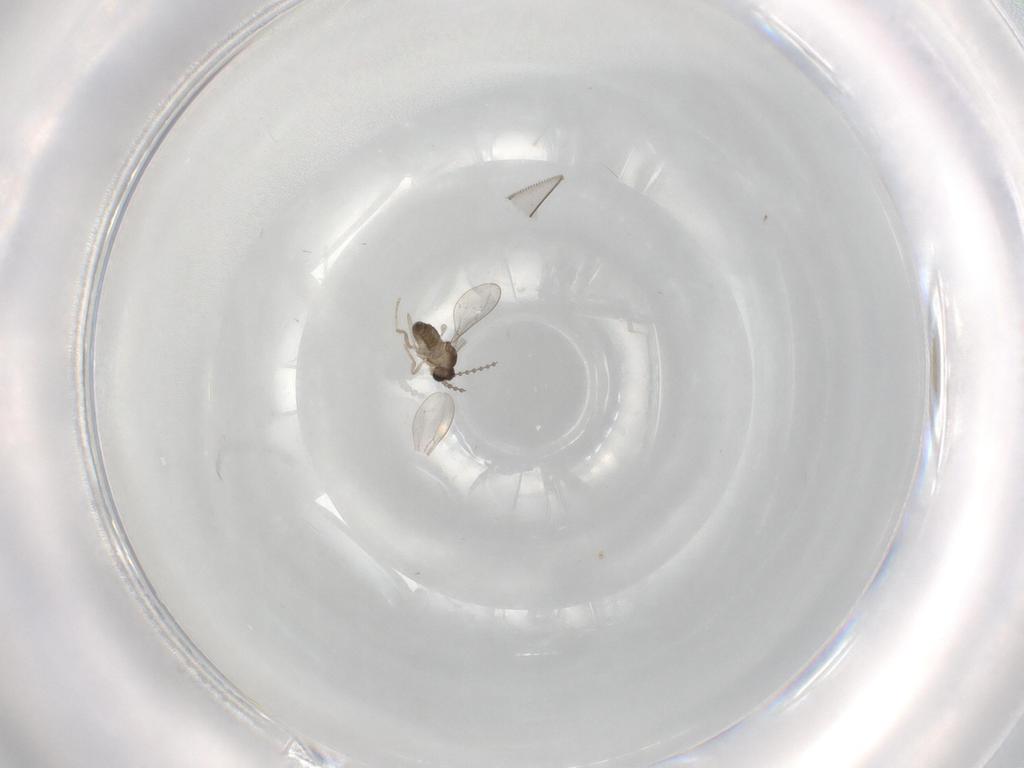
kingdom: Animalia
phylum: Arthropoda
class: Insecta
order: Diptera
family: Cecidomyiidae
